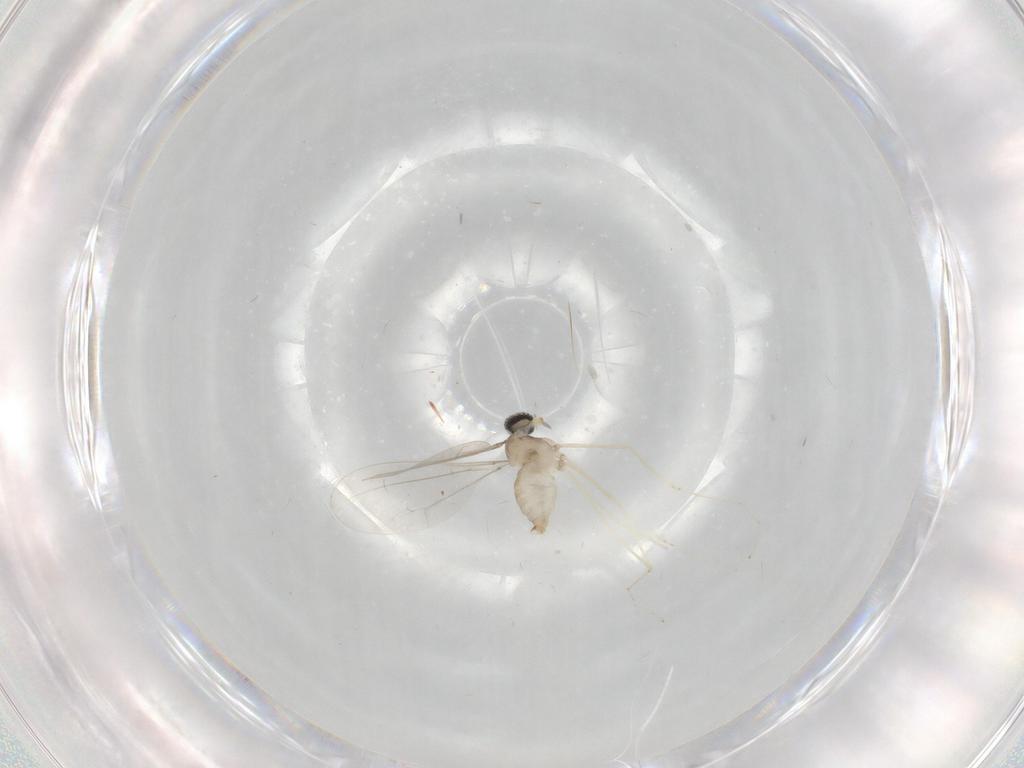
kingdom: Animalia
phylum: Arthropoda
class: Insecta
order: Diptera
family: Cecidomyiidae
